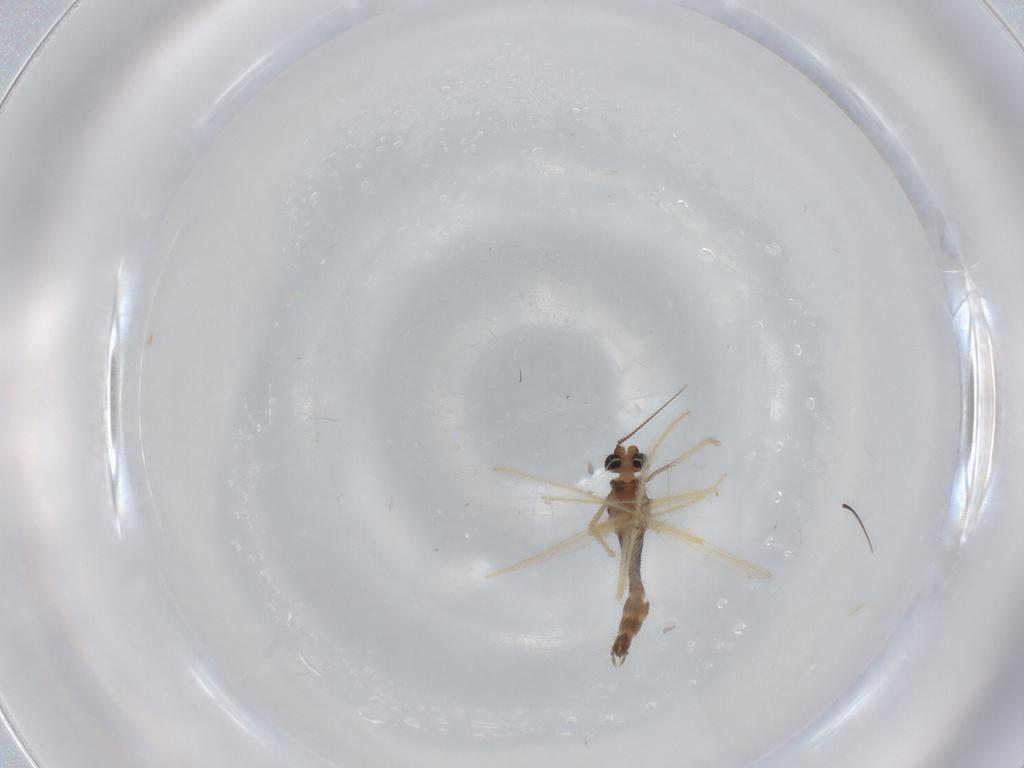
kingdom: Animalia
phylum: Arthropoda
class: Insecta
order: Diptera
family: Chironomidae
